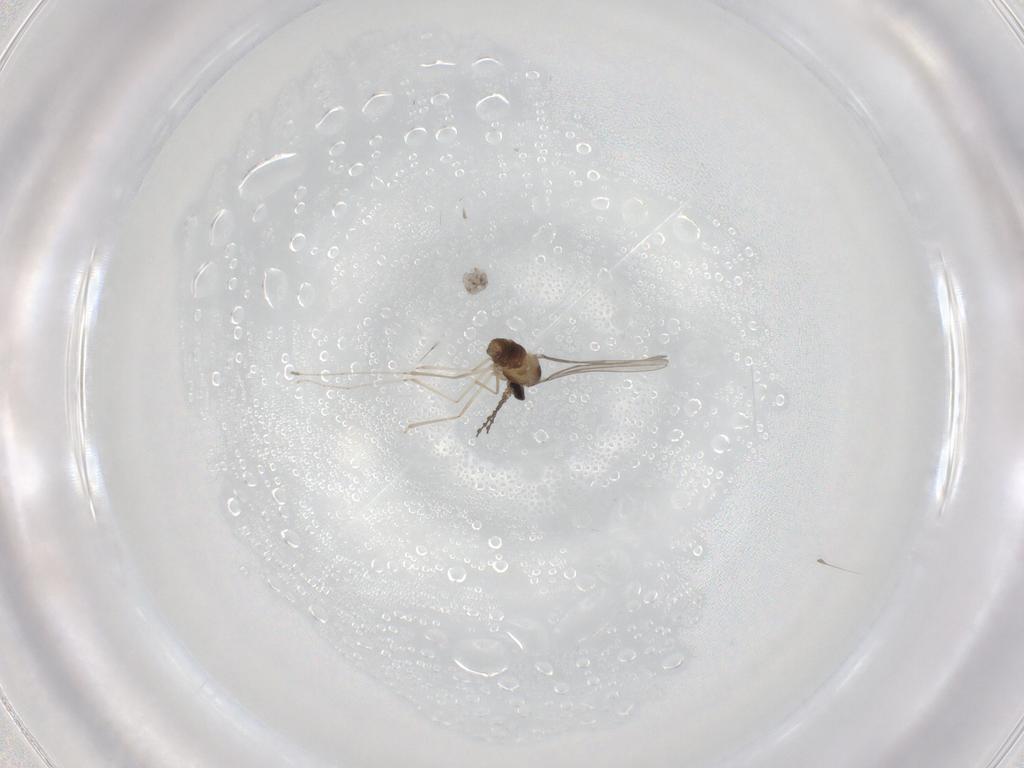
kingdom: Animalia
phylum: Arthropoda
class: Insecta
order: Diptera
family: Cecidomyiidae
